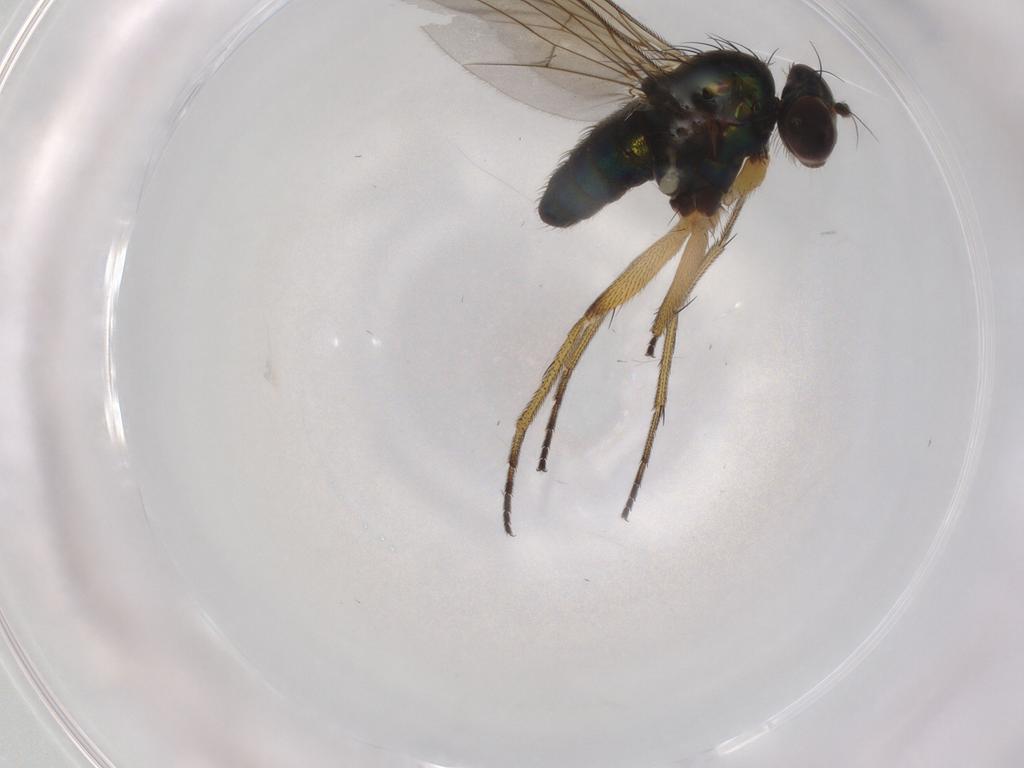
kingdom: Animalia
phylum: Arthropoda
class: Insecta
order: Diptera
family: Dolichopodidae
